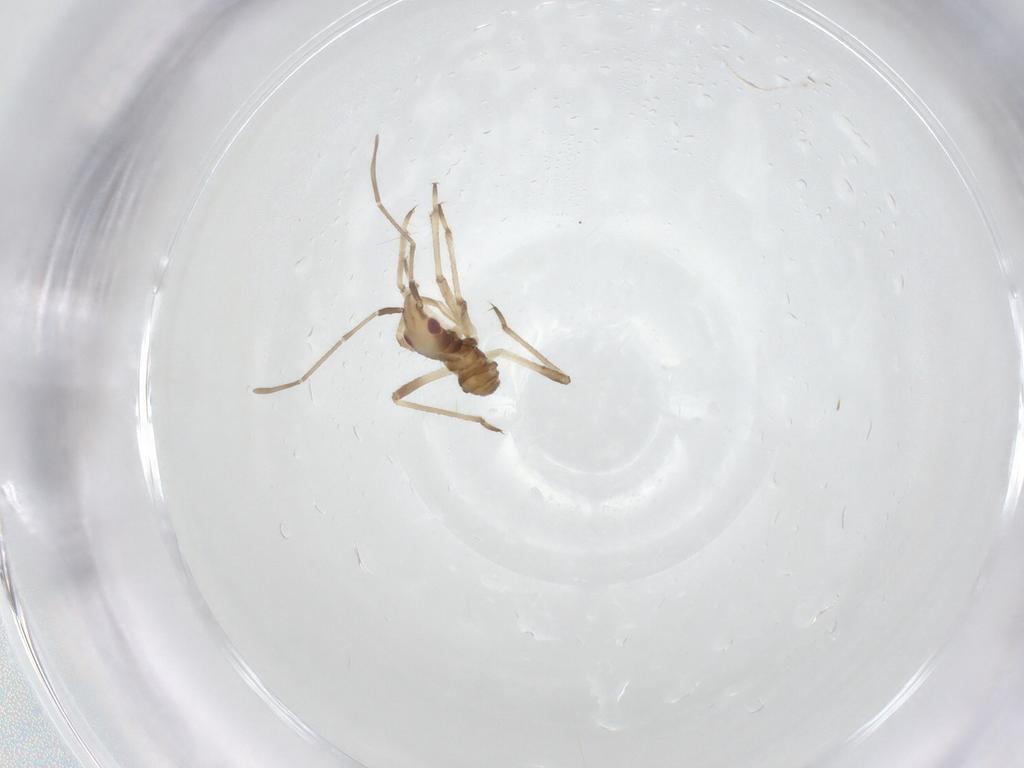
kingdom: Animalia
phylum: Arthropoda
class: Insecta
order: Hemiptera
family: Nabidae
